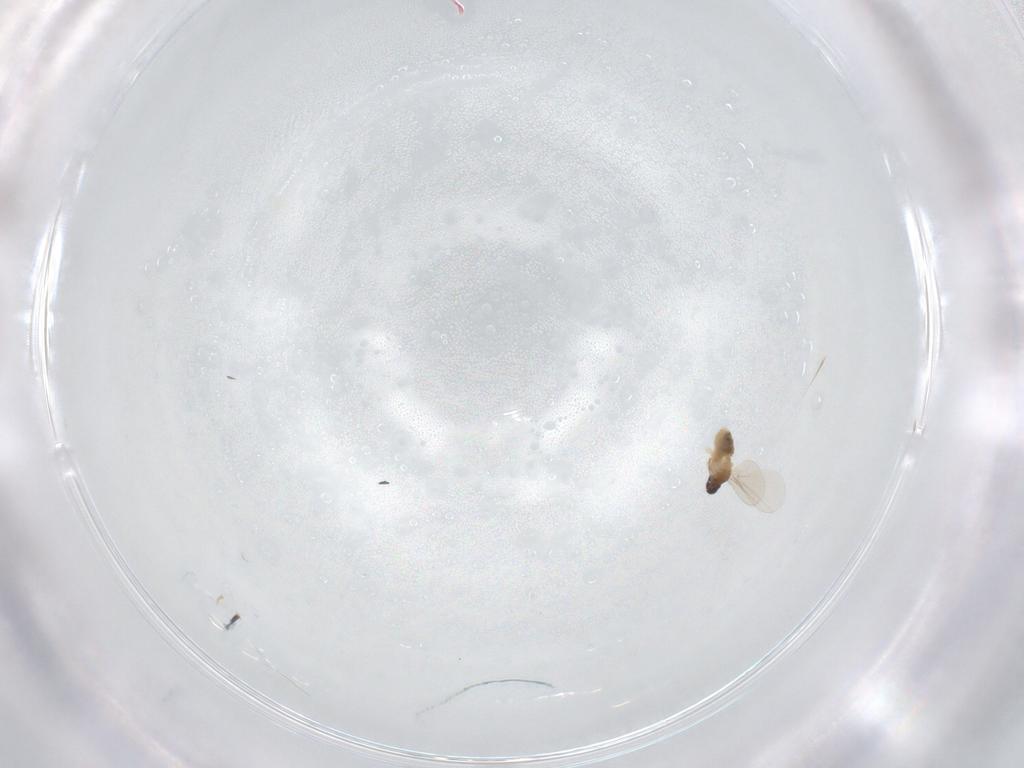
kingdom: Animalia
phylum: Arthropoda
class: Insecta
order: Diptera
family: Cecidomyiidae
